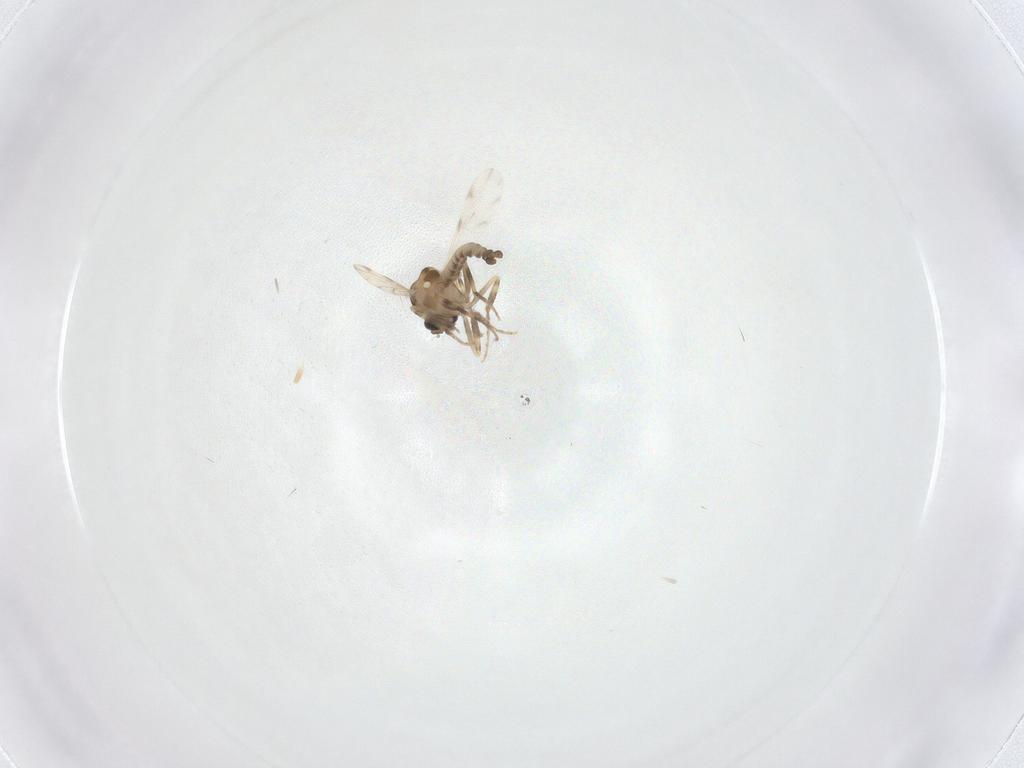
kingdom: Animalia
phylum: Arthropoda
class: Insecta
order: Diptera
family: Ceratopogonidae
